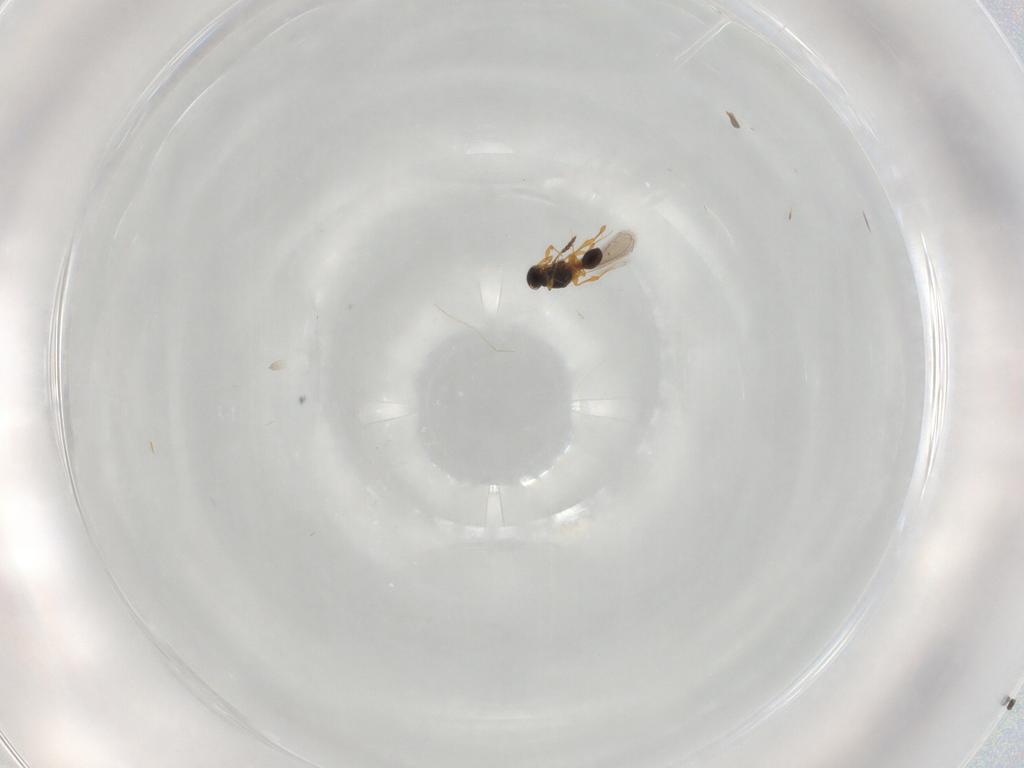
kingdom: Animalia
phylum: Arthropoda
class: Insecta
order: Hymenoptera
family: Platygastridae
